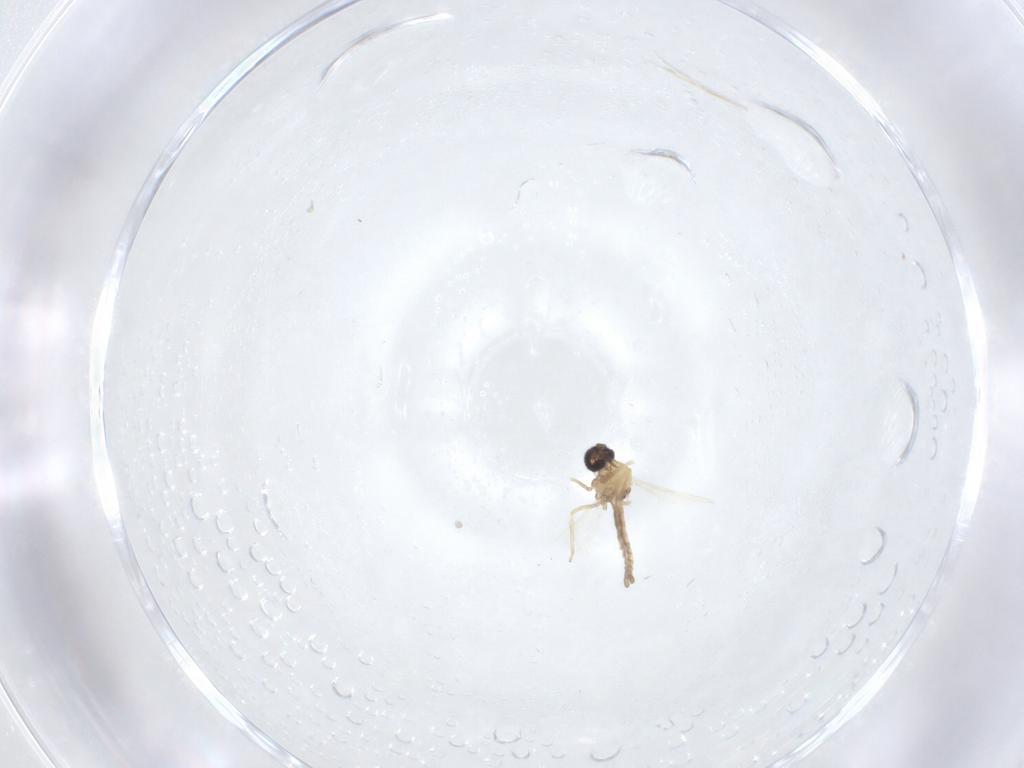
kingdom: Animalia
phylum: Arthropoda
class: Insecta
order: Diptera
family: Ceratopogonidae
